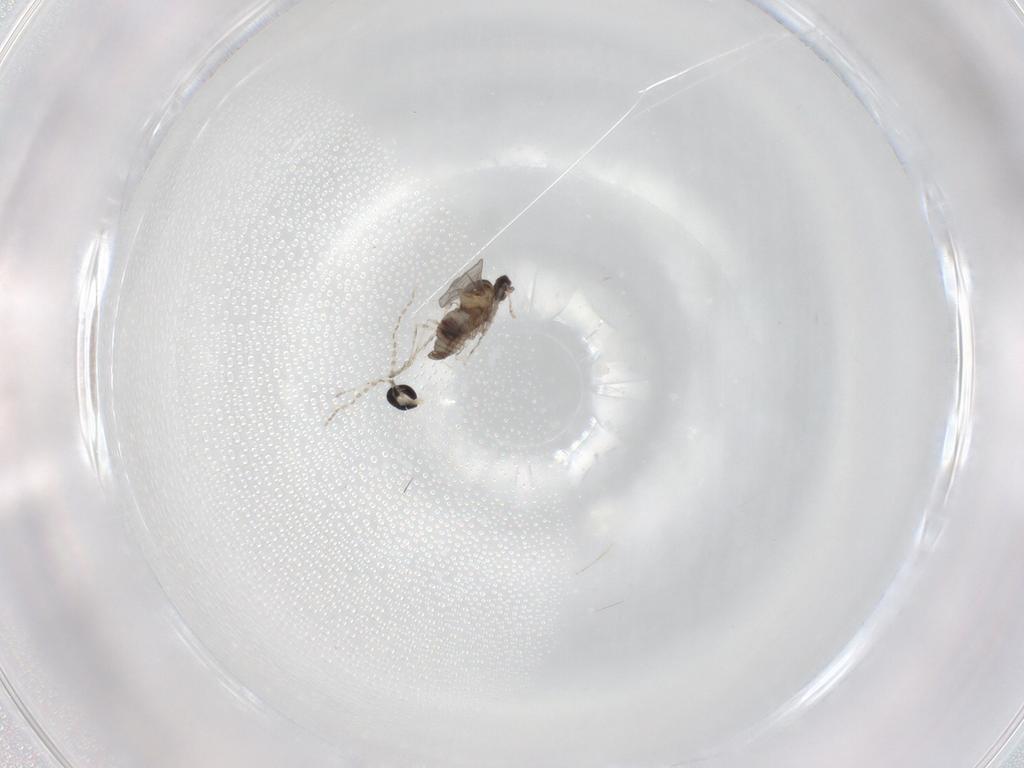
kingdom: Animalia
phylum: Arthropoda
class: Insecta
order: Diptera
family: Cecidomyiidae
